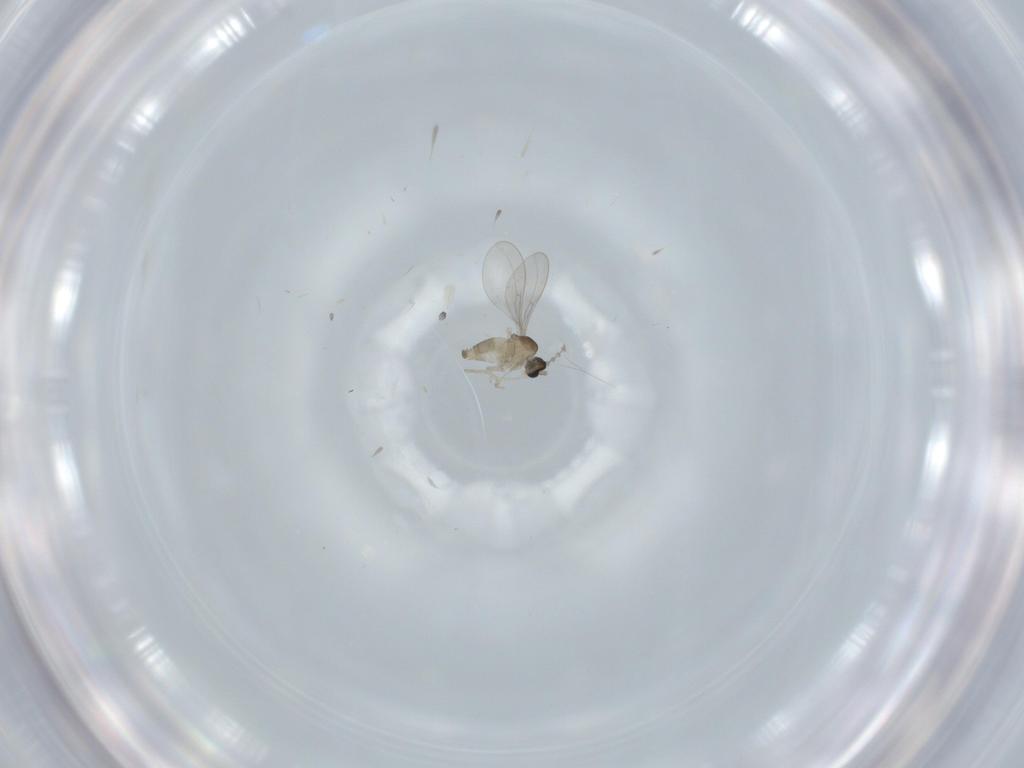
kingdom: Animalia
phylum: Arthropoda
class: Insecta
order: Diptera
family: Cecidomyiidae
